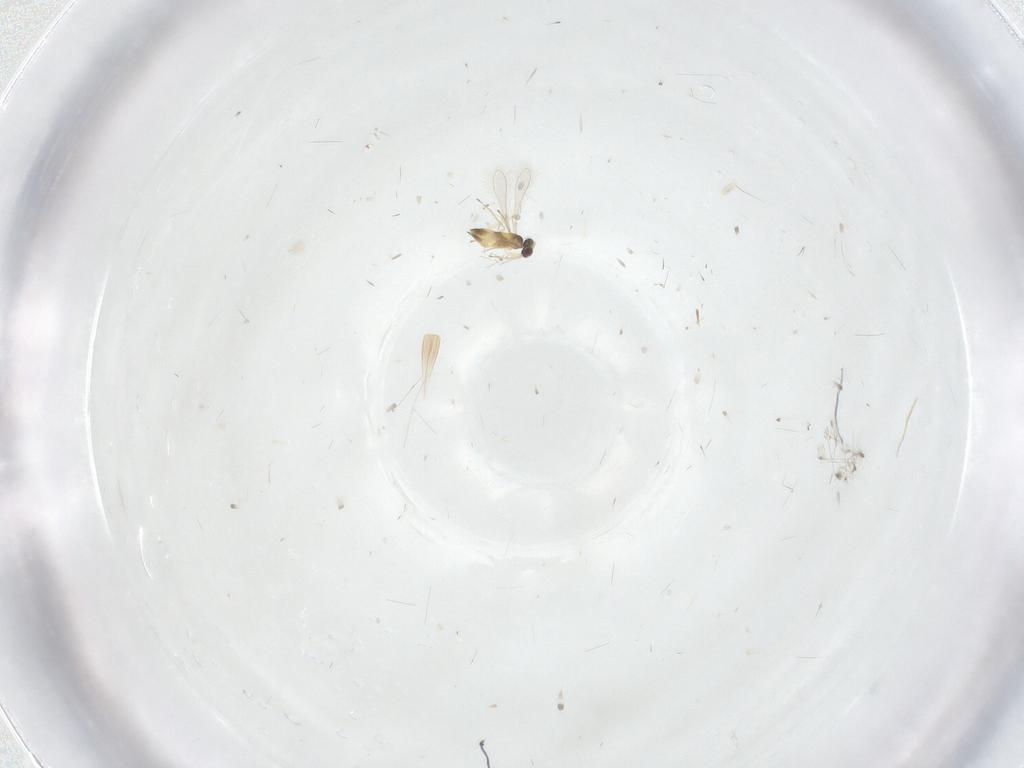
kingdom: Animalia
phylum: Arthropoda
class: Insecta
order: Hymenoptera
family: Mymaridae
